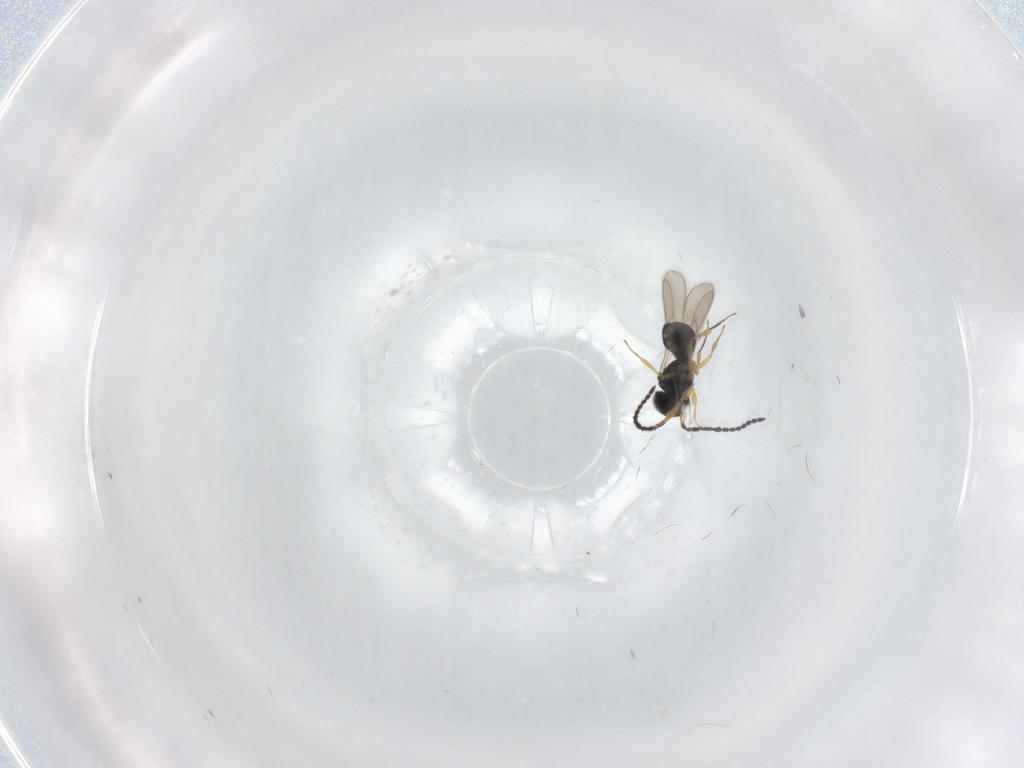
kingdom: Animalia
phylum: Arthropoda
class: Insecta
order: Hymenoptera
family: Scelionidae
